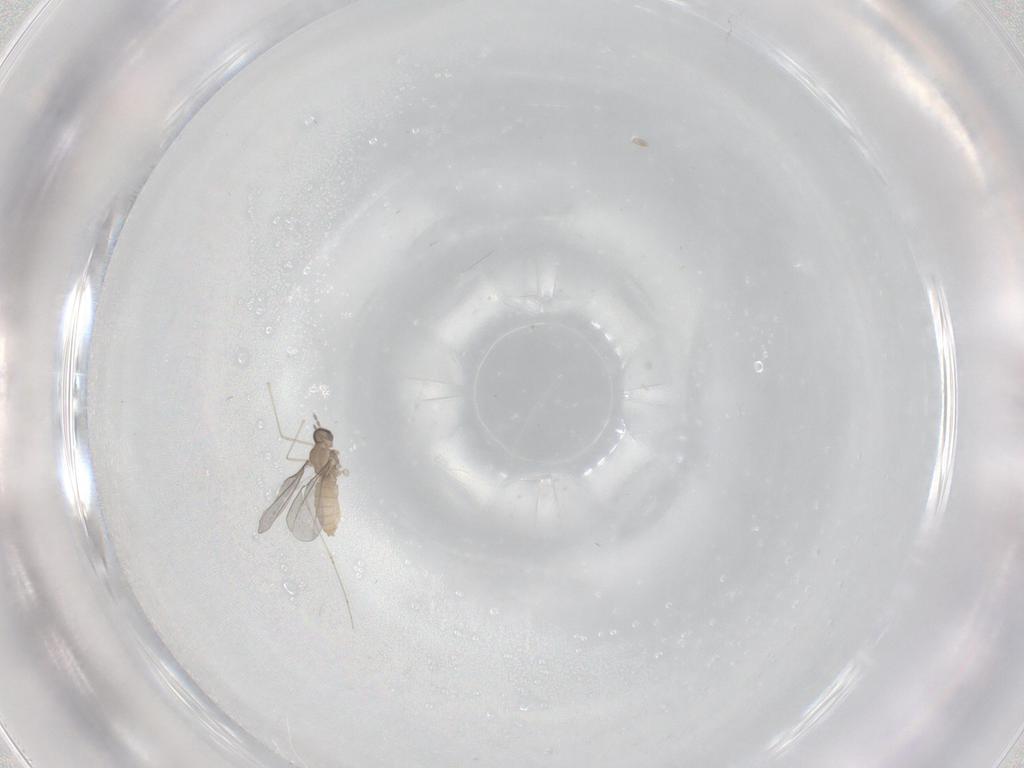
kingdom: Animalia
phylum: Arthropoda
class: Insecta
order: Diptera
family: Cecidomyiidae
